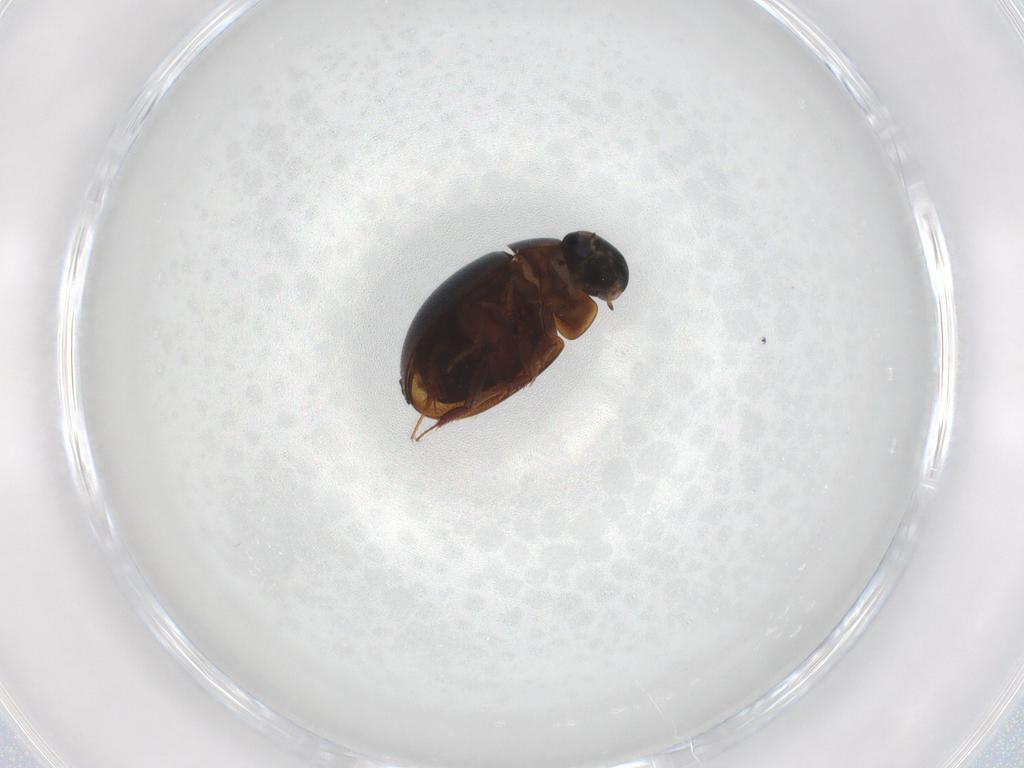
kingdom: Animalia
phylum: Arthropoda
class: Insecta
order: Coleoptera
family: Hydrophilidae
